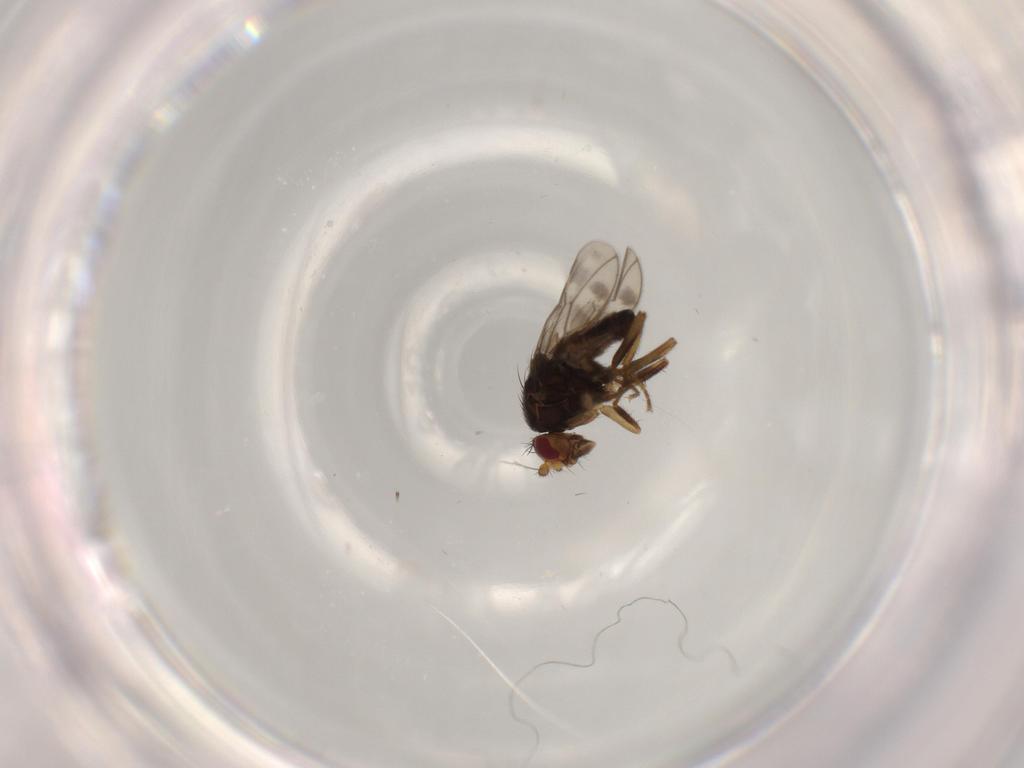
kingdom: Animalia
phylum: Arthropoda
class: Insecta
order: Diptera
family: Sphaeroceridae
